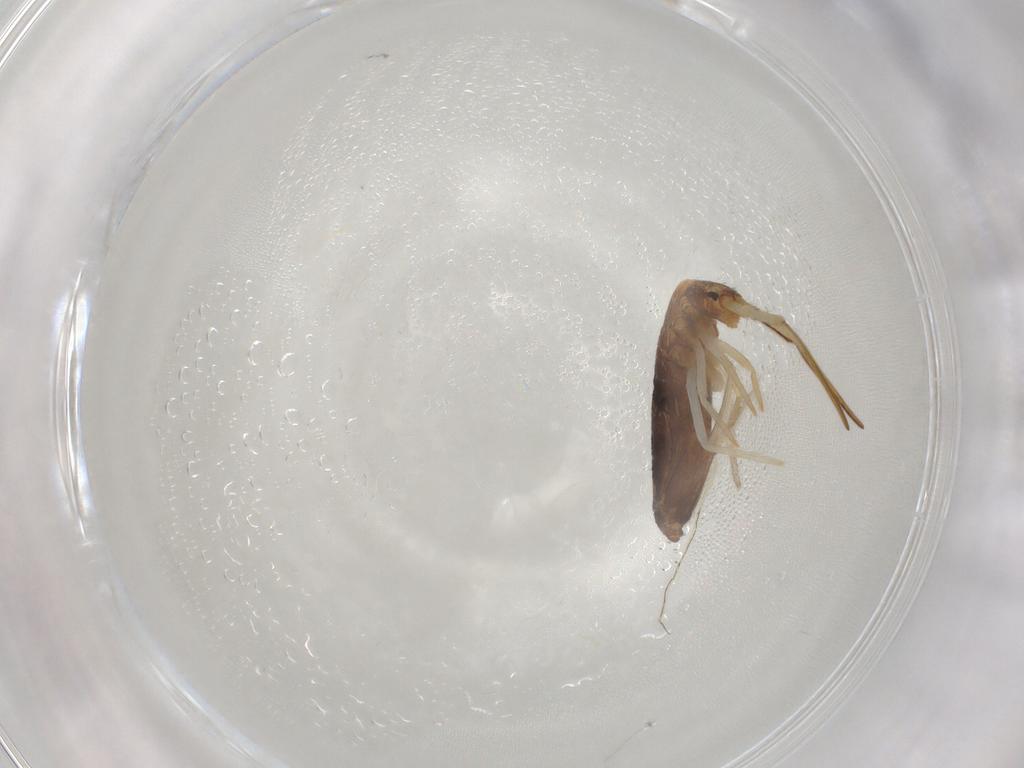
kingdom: Animalia
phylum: Arthropoda
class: Collembola
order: Entomobryomorpha
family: Entomobryidae
